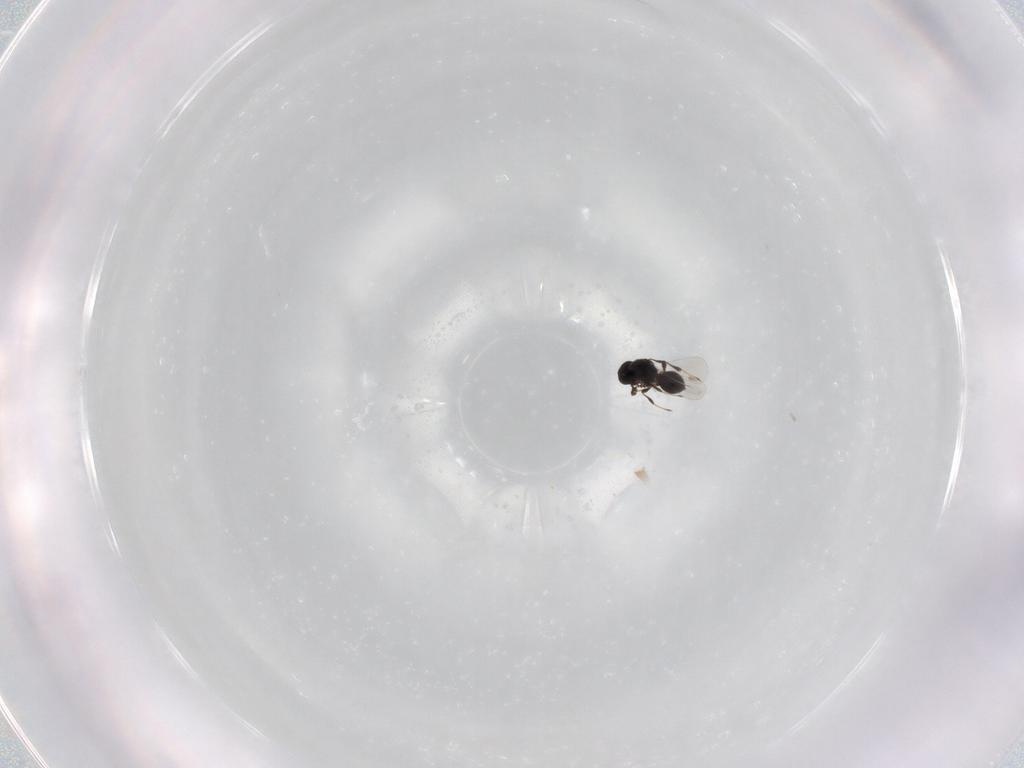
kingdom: Animalia
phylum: Arthropoda
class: Insecta
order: Hymenoptera
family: Platygastridae
